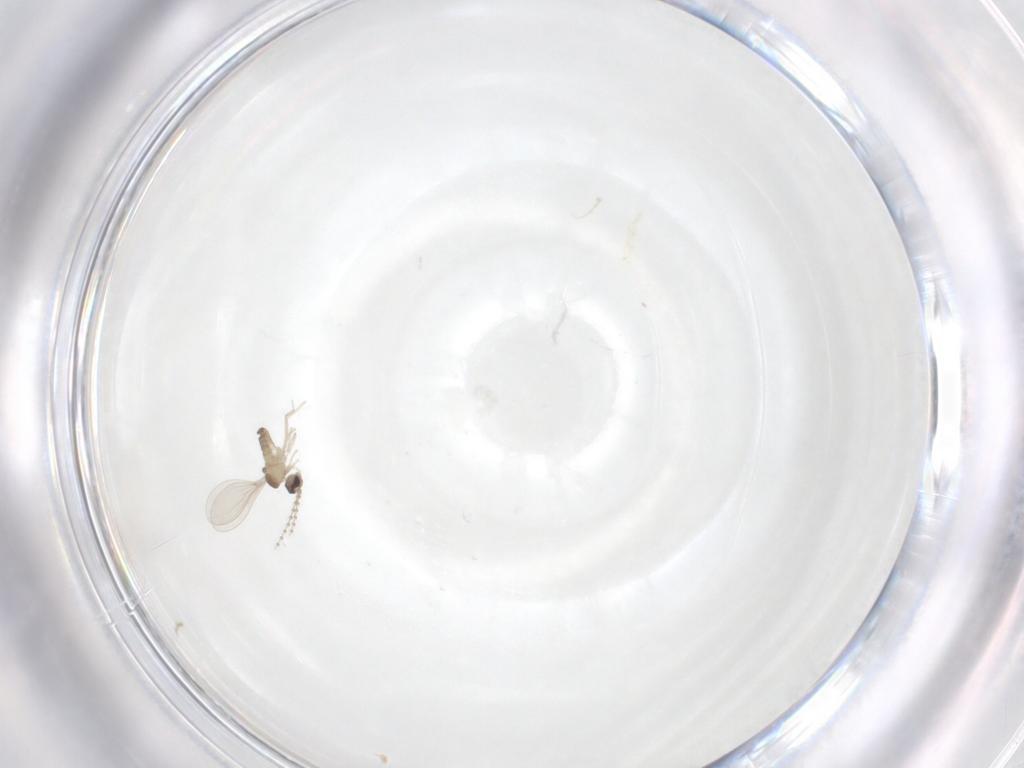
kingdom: Animalia
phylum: Arthropoda
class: Insecta
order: Diptera
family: Cecidomyiidae
